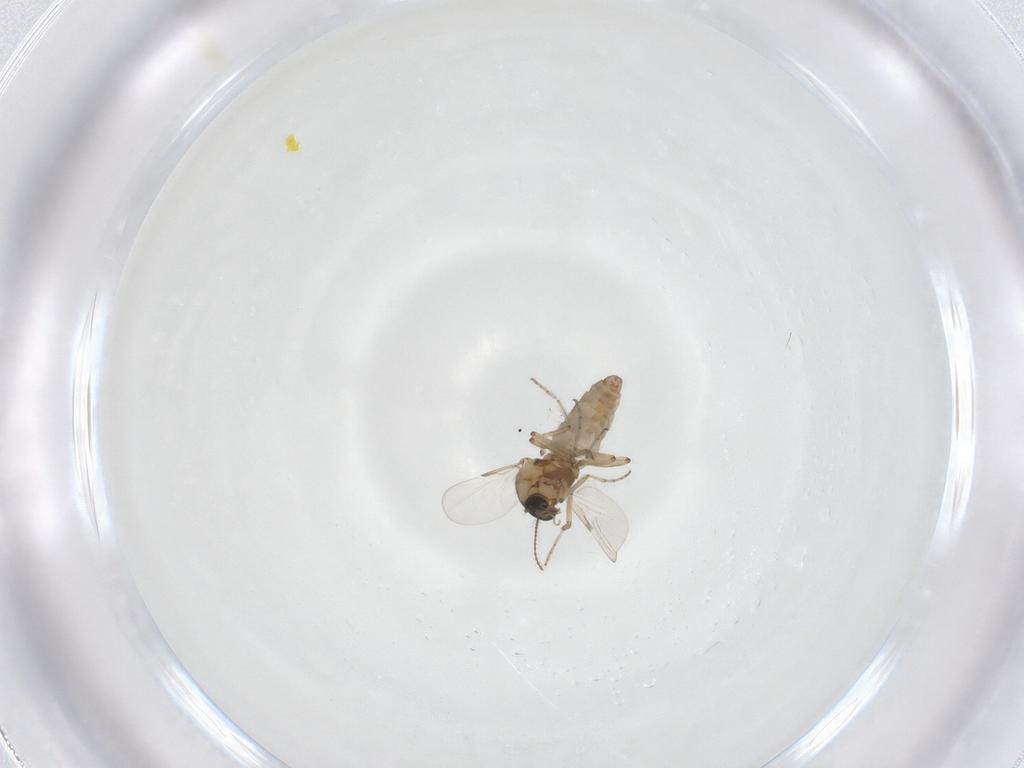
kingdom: Animalia
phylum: Arthropoda
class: Insecta
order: Diptera
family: Ceratopogonidae
